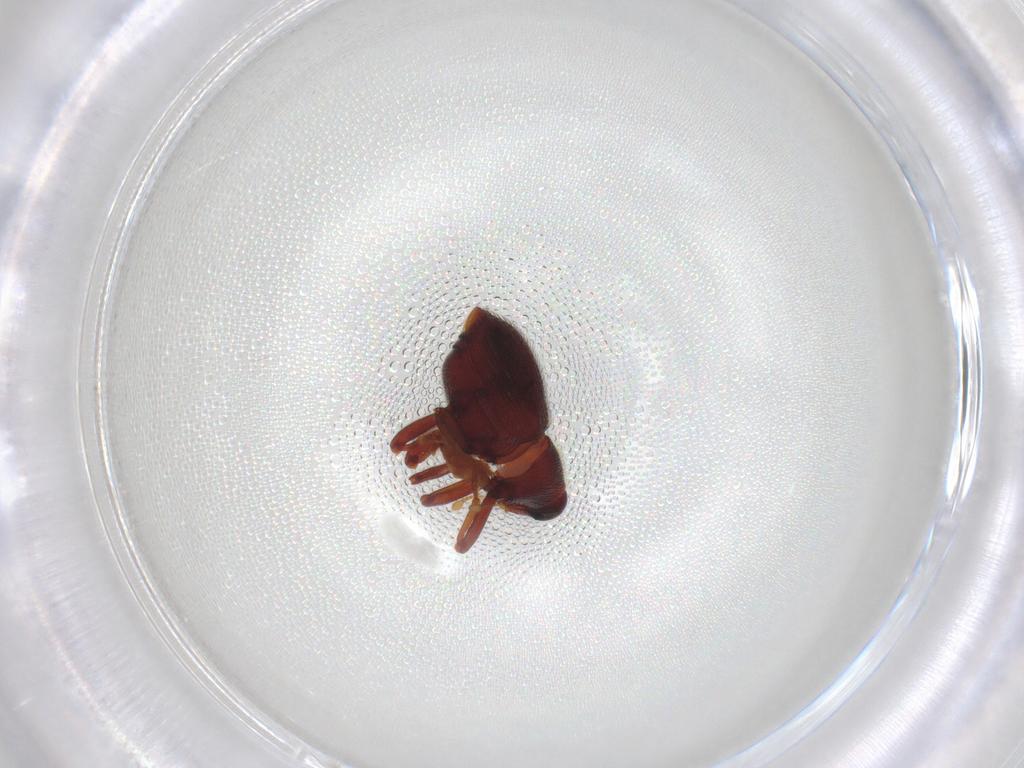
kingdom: Animalia
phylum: Arthropoda
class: Insecta
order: Coleoptera
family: Curculionidae
